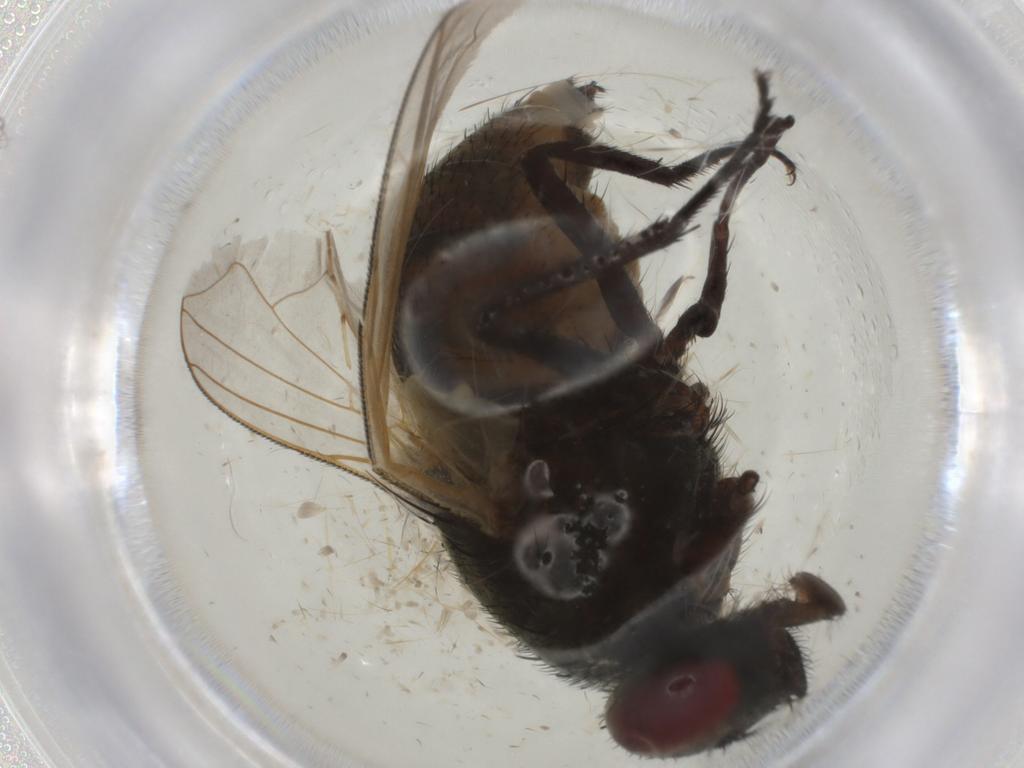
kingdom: Animalia
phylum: Arthropoda
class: Insecta
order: Diptera
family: Muscidae
